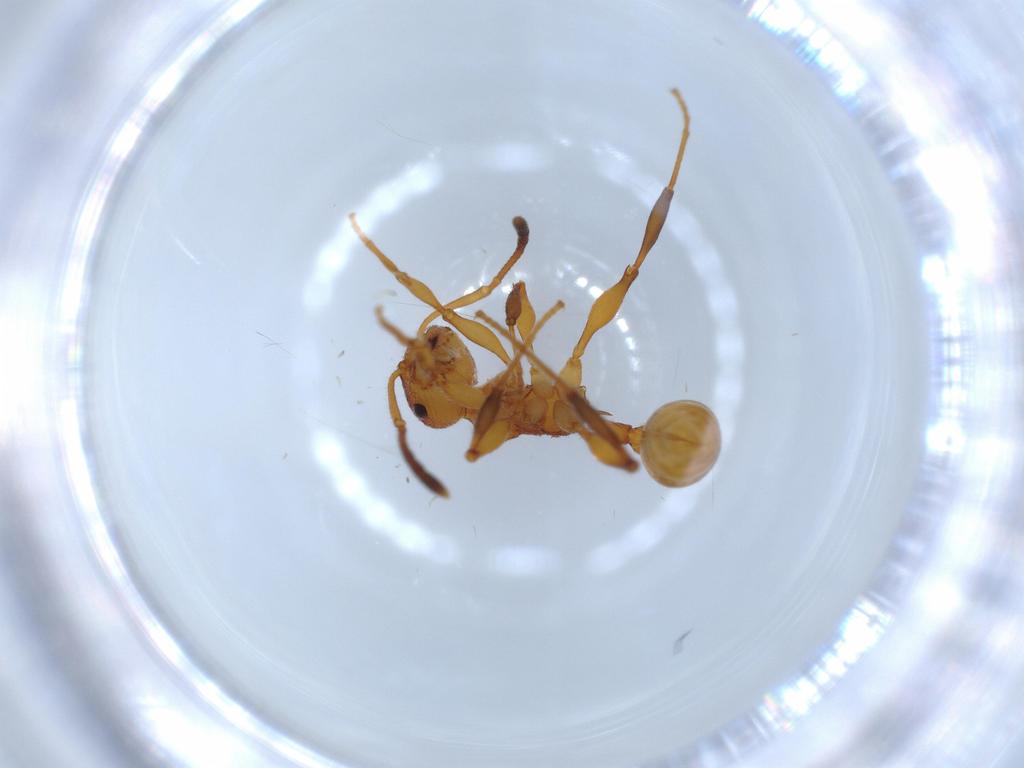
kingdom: Animalia
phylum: Arthropoda
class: Insecta
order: Hymenoptera
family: Formicidae
